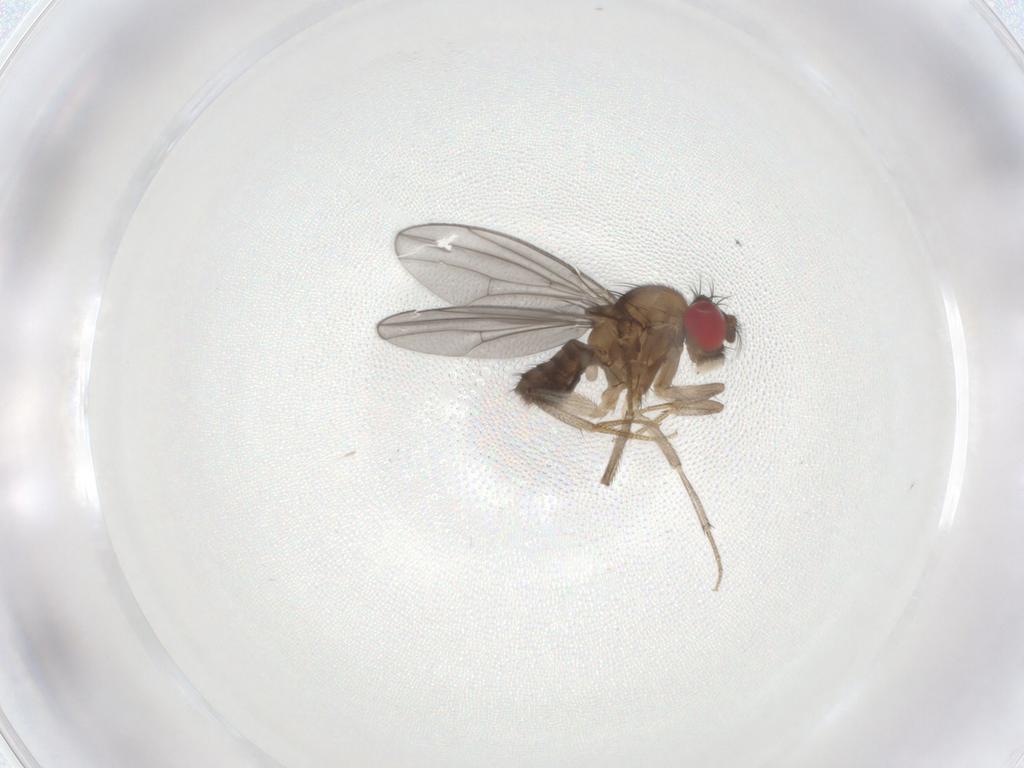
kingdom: Animalia
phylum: Arthropoda
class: Insecta
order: Diptera
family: Drosophilidae
